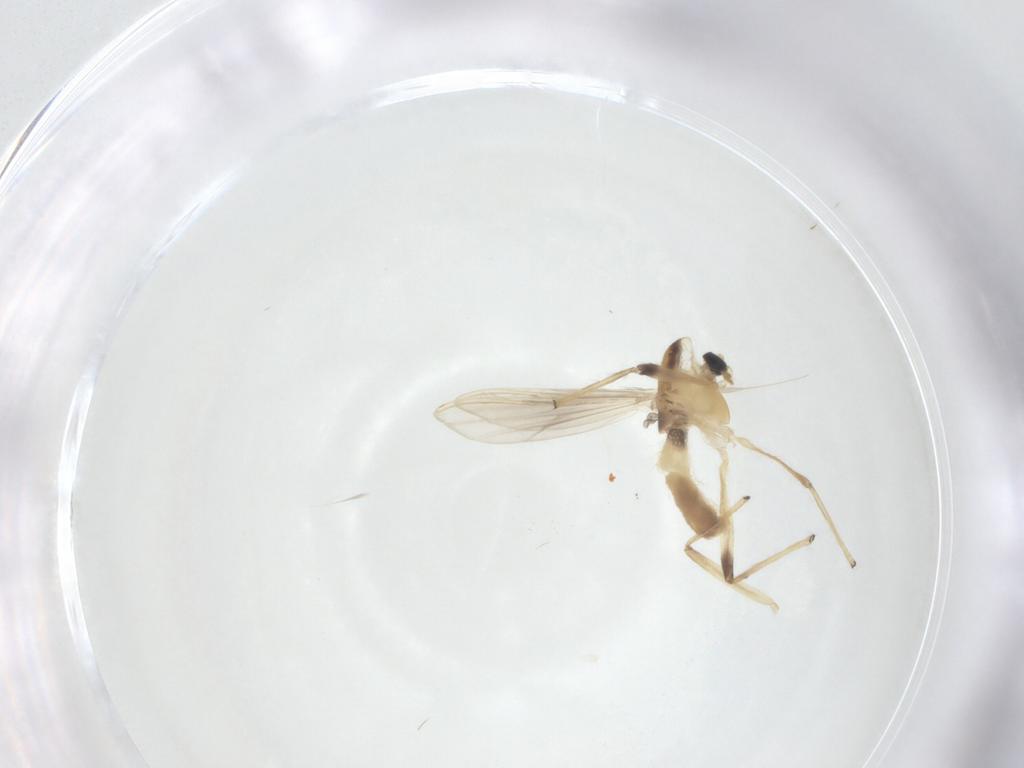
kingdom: Animalia
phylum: Arthropoda
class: Insecta
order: Diptera
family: Chironomidae
